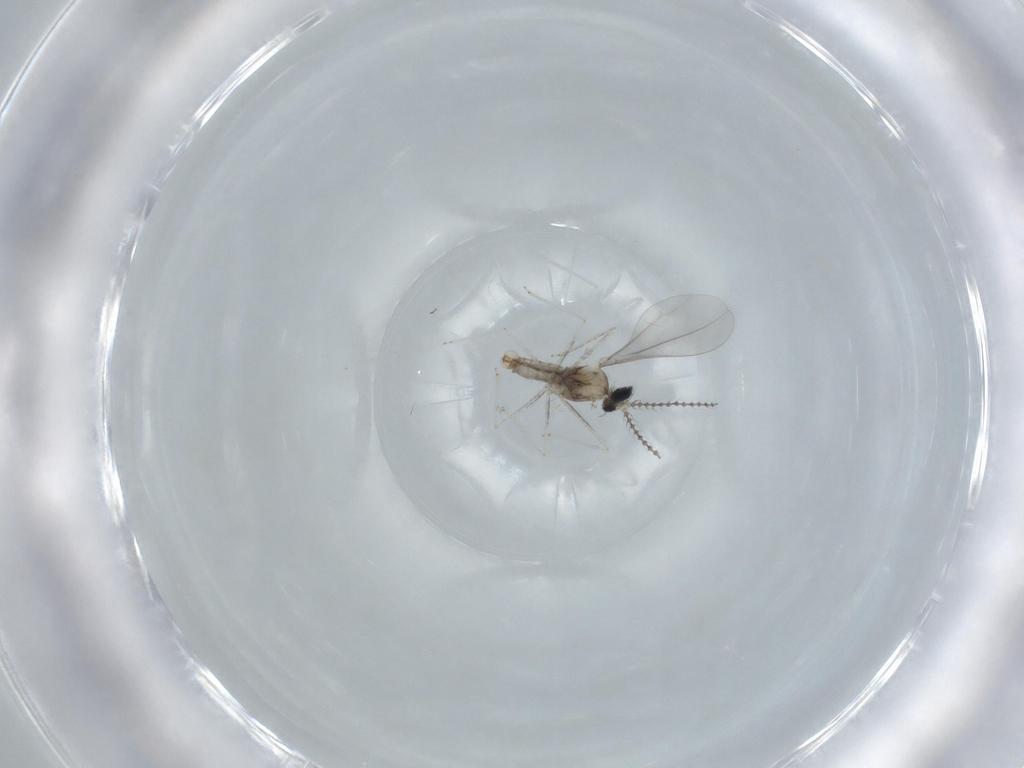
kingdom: Animalia
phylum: Arthropoda
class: Insecta
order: Diptera
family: Cecidomyiidae
